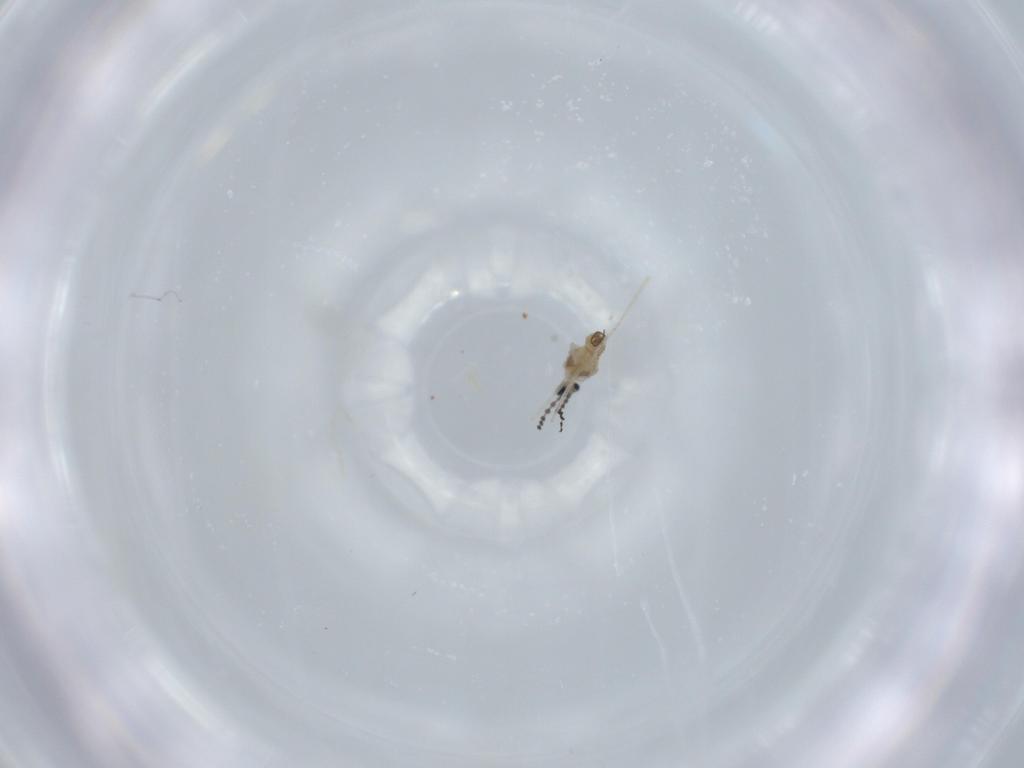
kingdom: Animalia
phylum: Arthropoda
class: Insecta
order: Diptera
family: Cecidomyiidae
